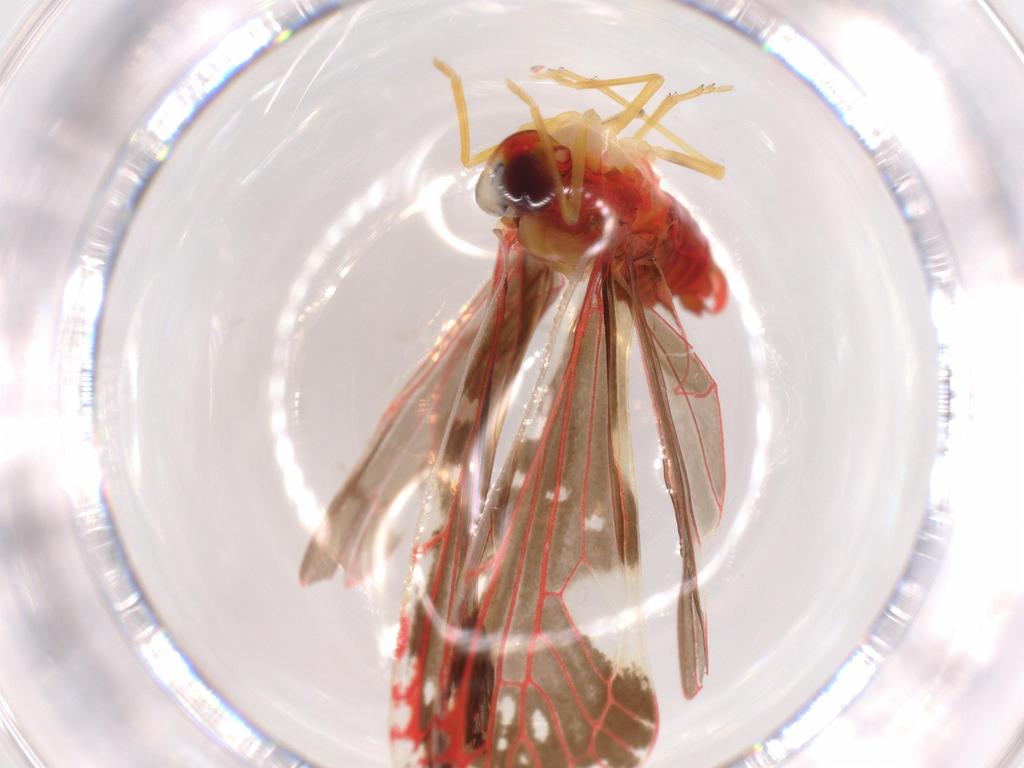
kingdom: Animalia
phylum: Arthropoda
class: Insecta
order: Hemiptera
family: Derbidae
